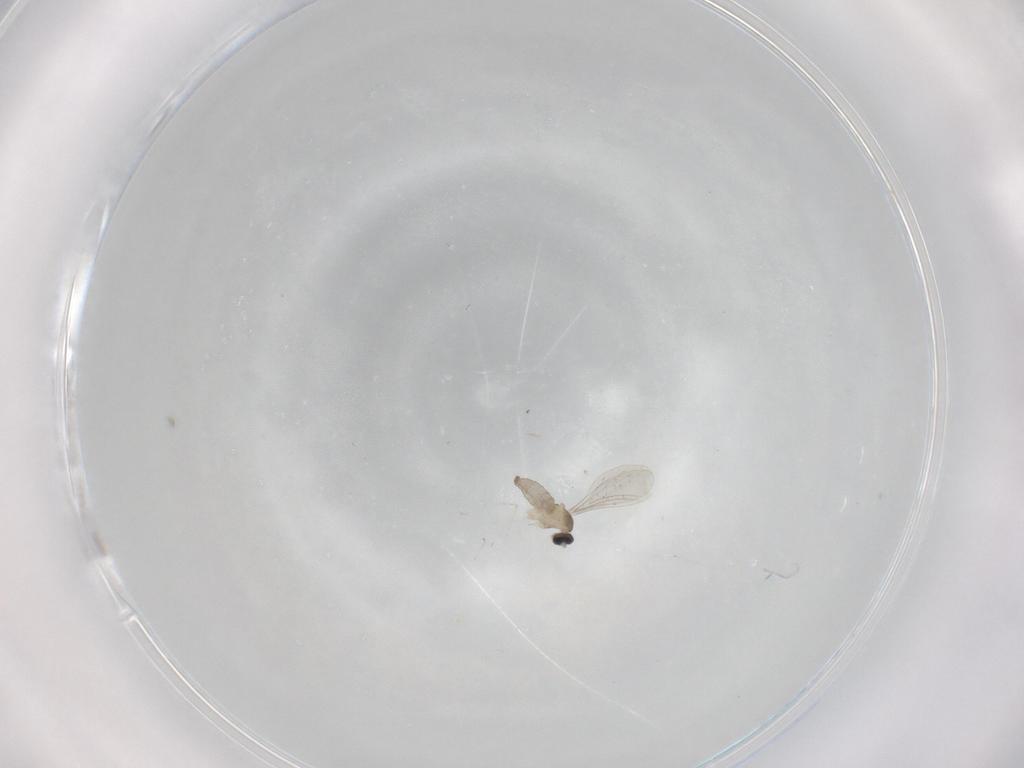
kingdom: Animalia
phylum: Arthropoda
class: Insecta
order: Diptera
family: Cecidomyiidae
